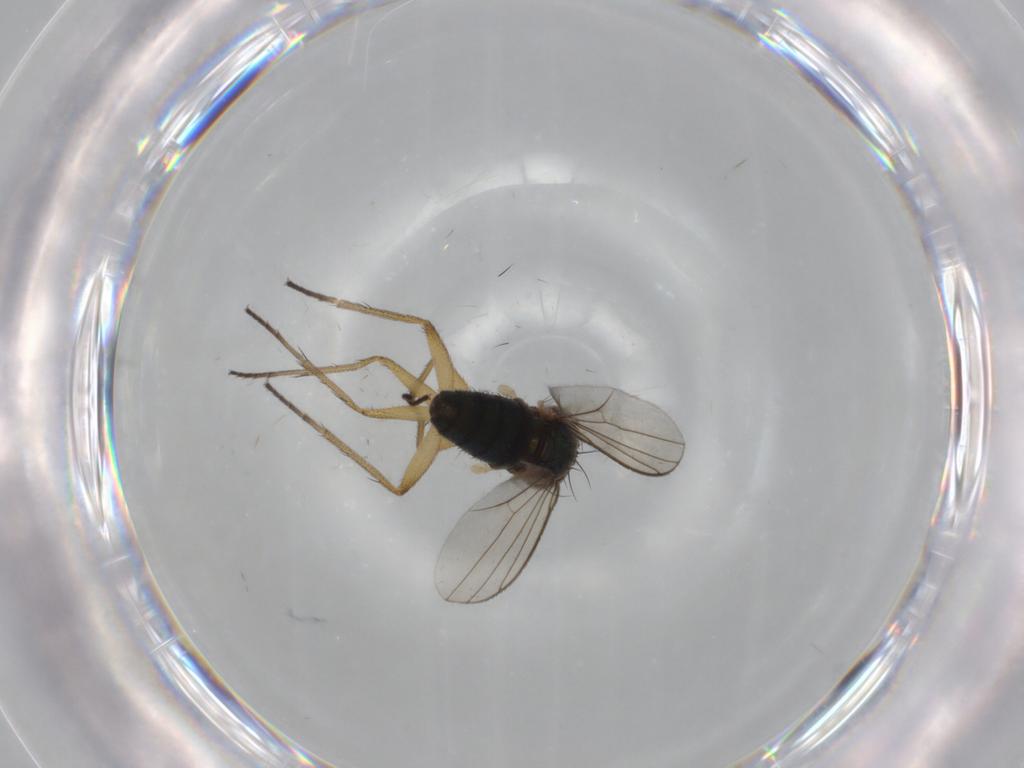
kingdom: Animalia
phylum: Arthropoda
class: Insecta
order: Diptera
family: Dolichopodidae
